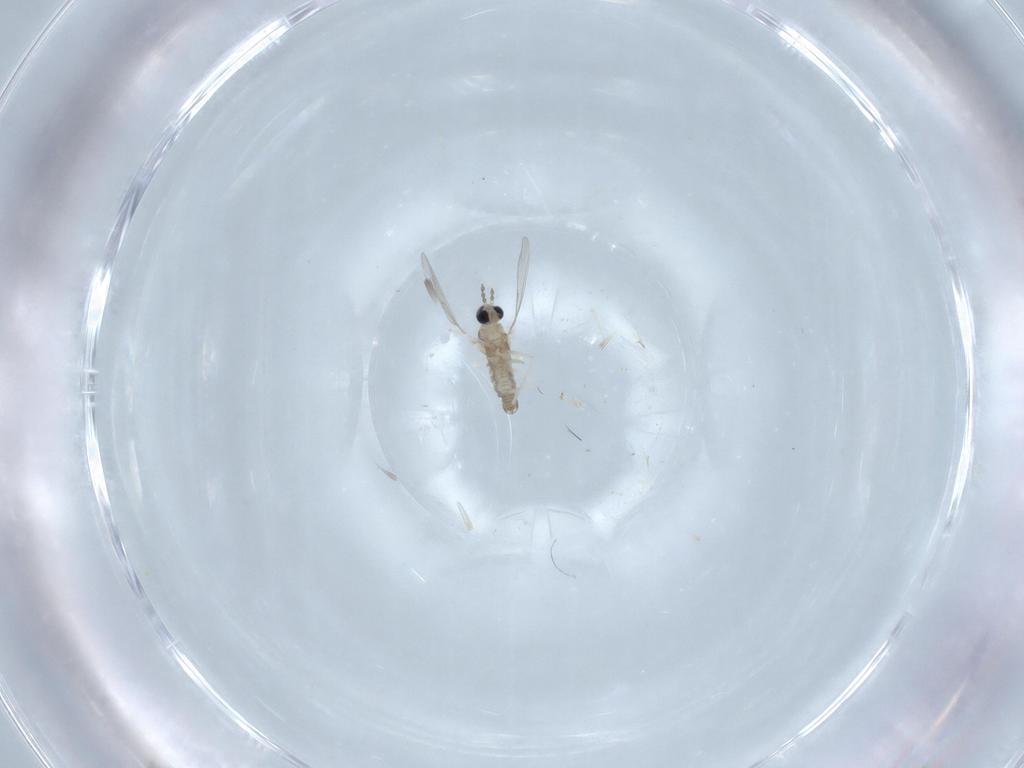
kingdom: Animalia
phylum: Arthropoda
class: Insecta
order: Diptera
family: Cecidomyiidae
